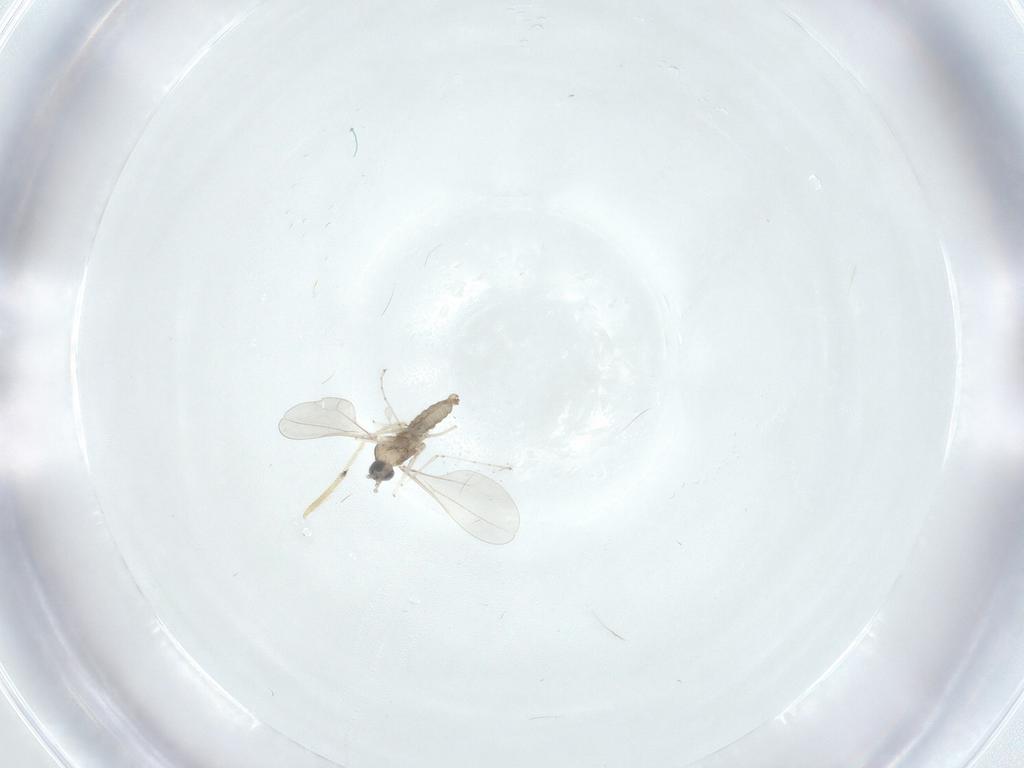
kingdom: Animalia
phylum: Arthropoda
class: Insecta
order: Diptera
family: Cecidomyiidae
